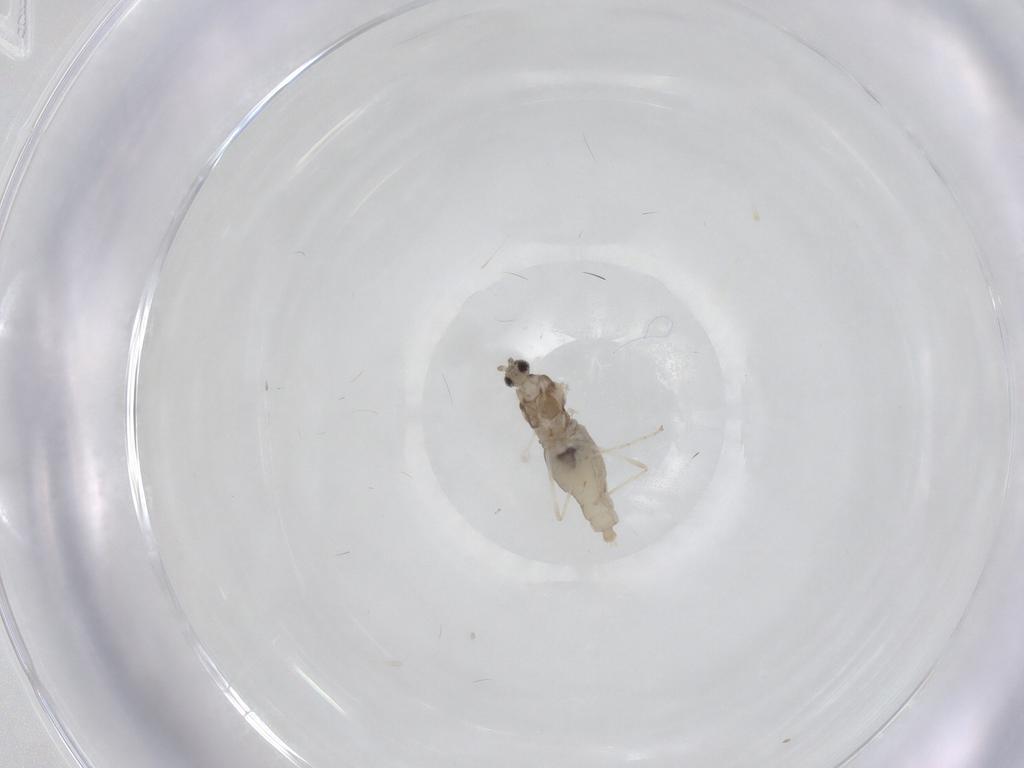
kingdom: Animalia
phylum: Arthropoda
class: Insecta
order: Diptera
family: Cecidomyiidae
